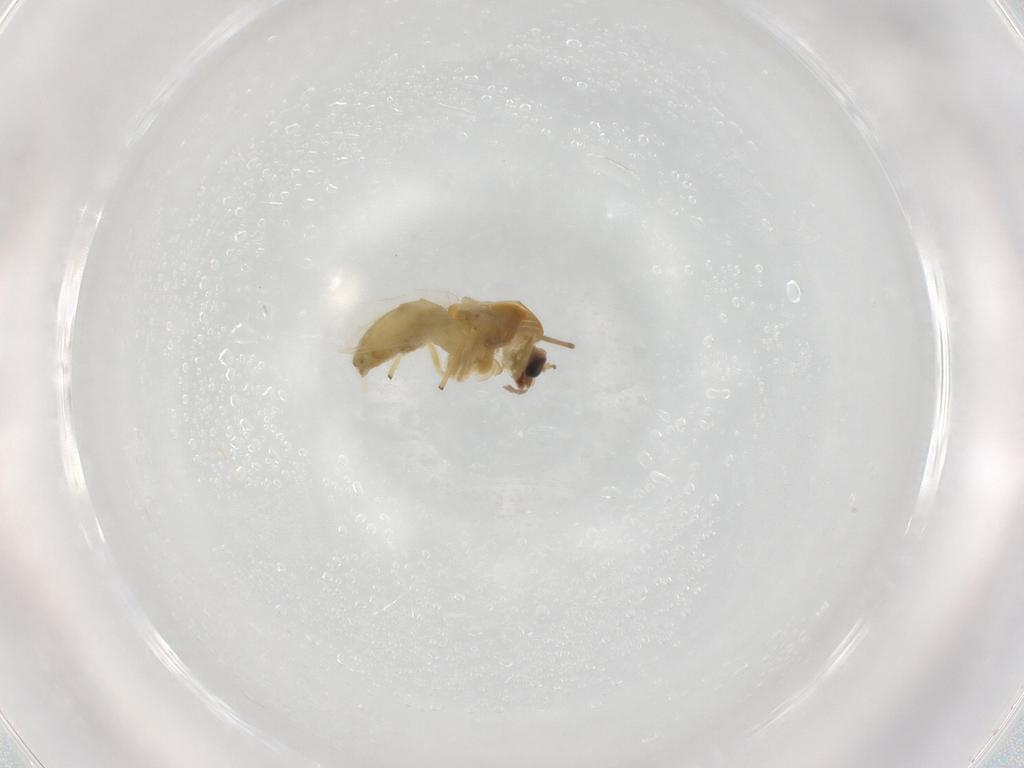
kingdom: Animalia
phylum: Arthropoda
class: Insecta
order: Diptera
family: Chironomidae
